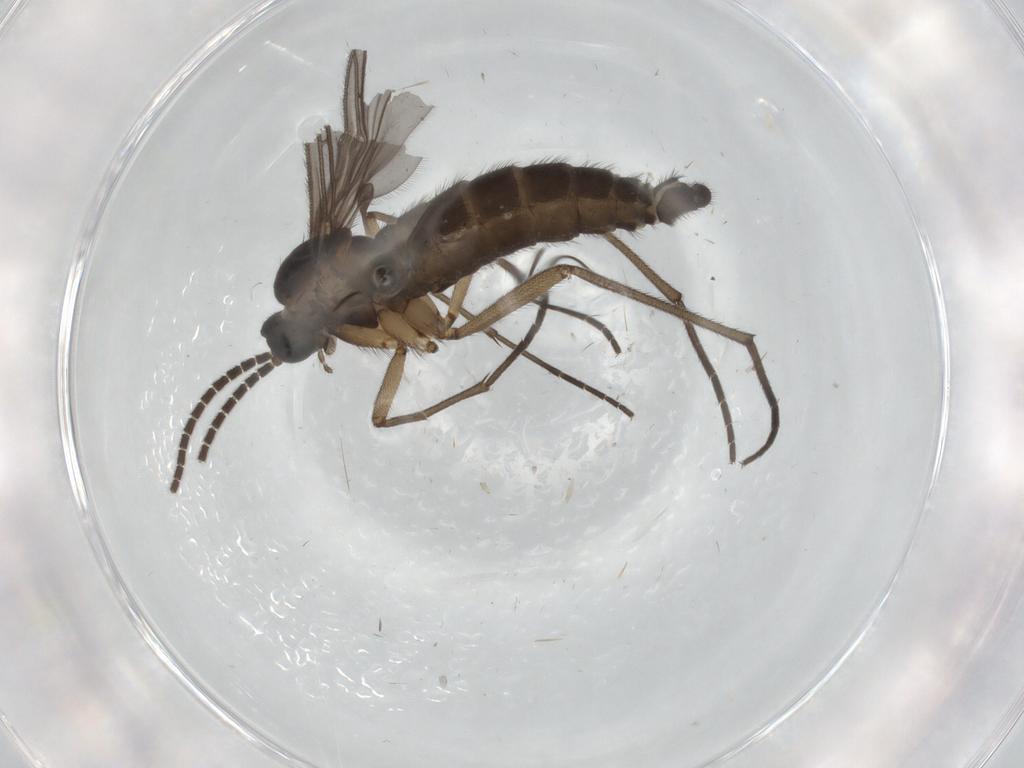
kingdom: Animalia
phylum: Arthropoda
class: Insecta
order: Diptera
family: Sciaridae
